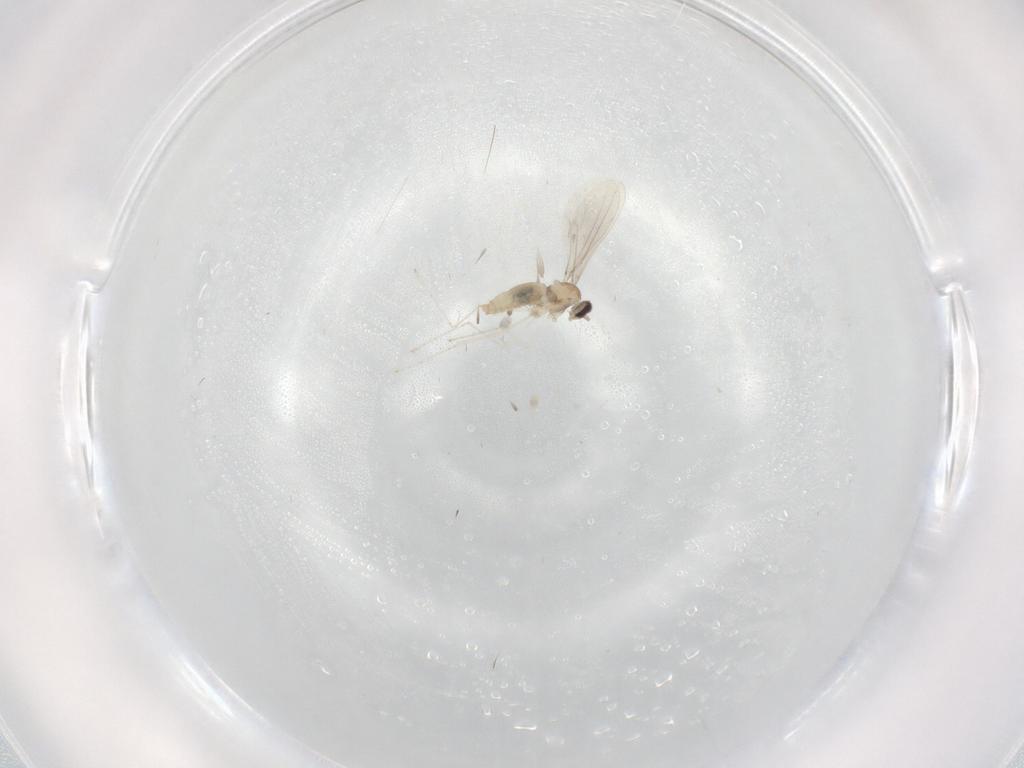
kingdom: Animalia
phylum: Arthropoda
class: Insecta
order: Diptera
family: Cecidomyiidae
